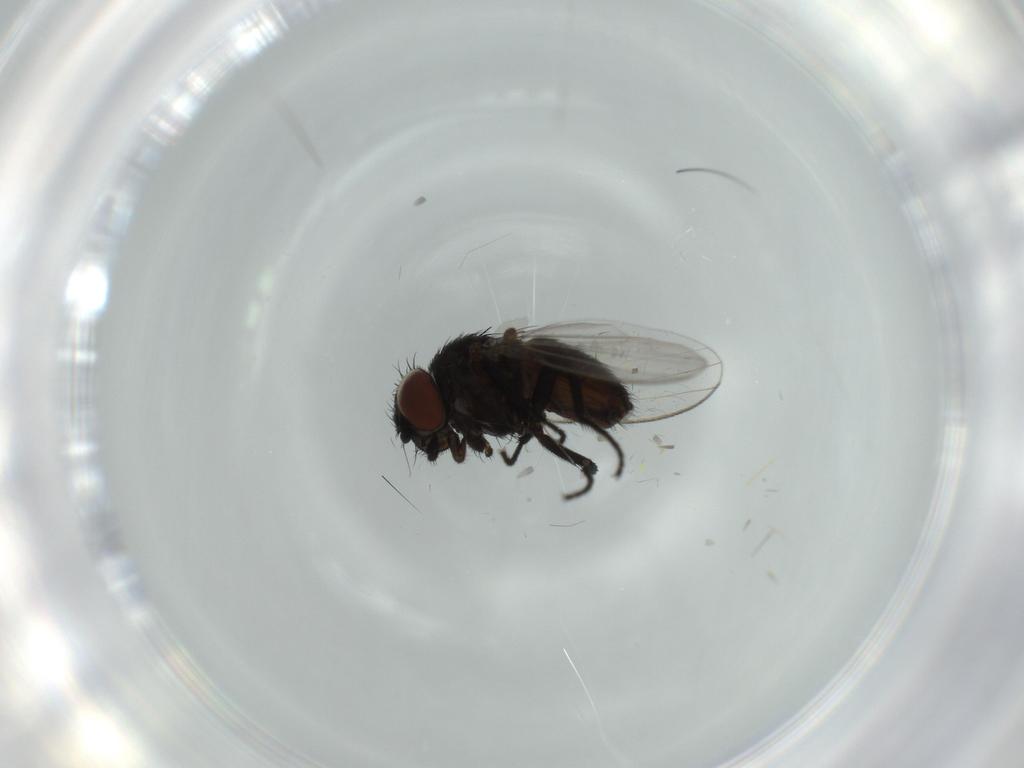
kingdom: Animalia
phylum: Arthropoda
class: Insecta
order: Diptera
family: Milichiidae
